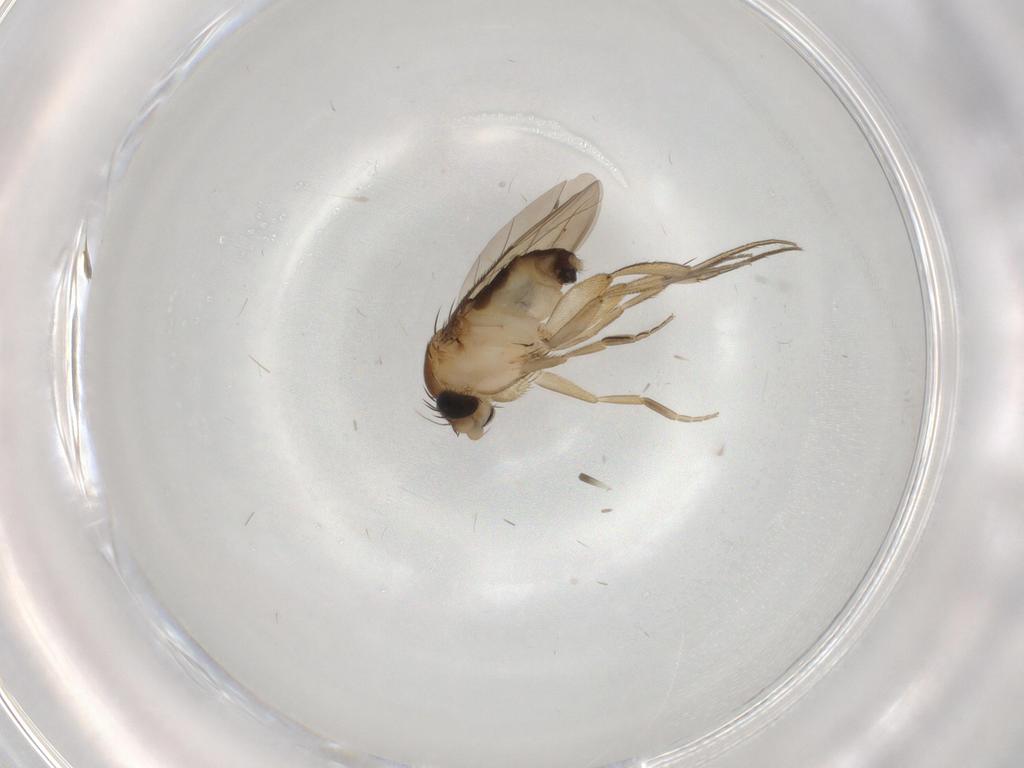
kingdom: Animalia
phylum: Arthropoda
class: Insecta
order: Diptera
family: Phoridae
